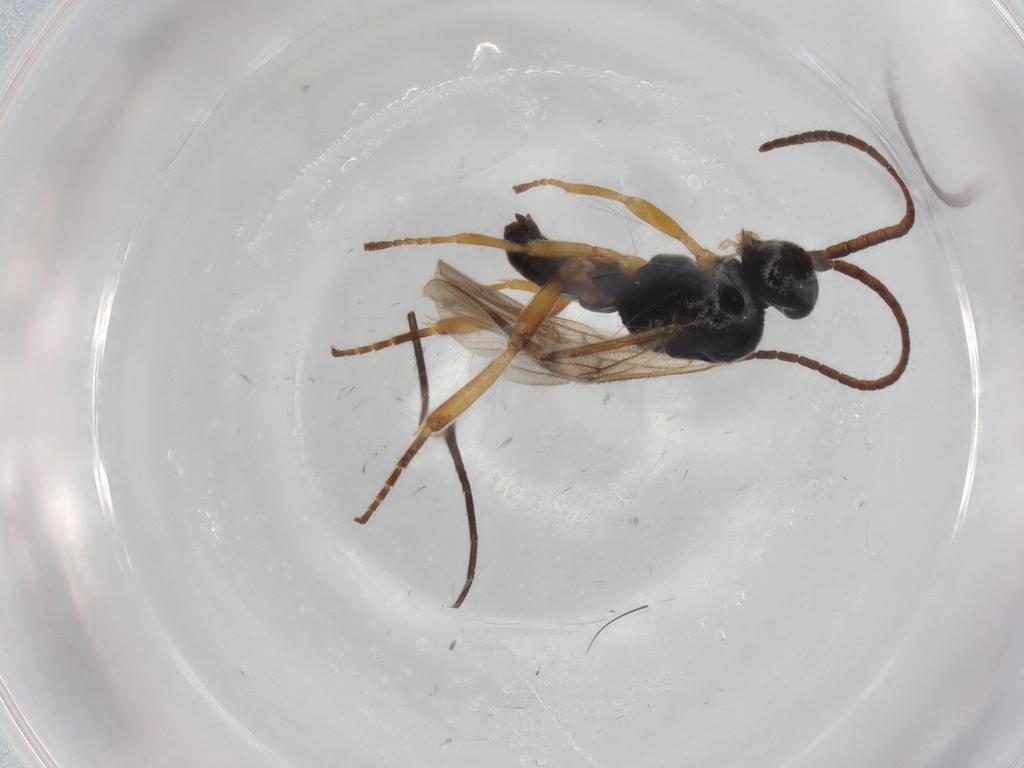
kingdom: Animalia
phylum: Arthropoda
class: Insecta
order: Hymenoptera
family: Braconidae
